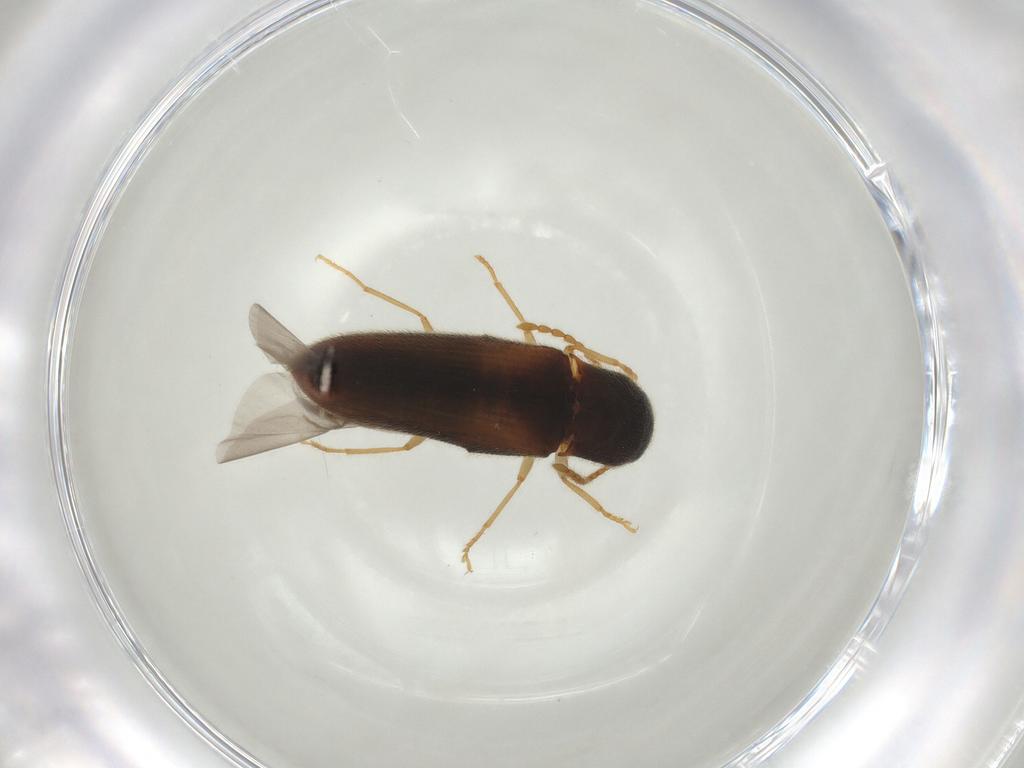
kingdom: Animalia
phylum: Arthropoda
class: Insecta
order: Coleoptera
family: Elateridae
